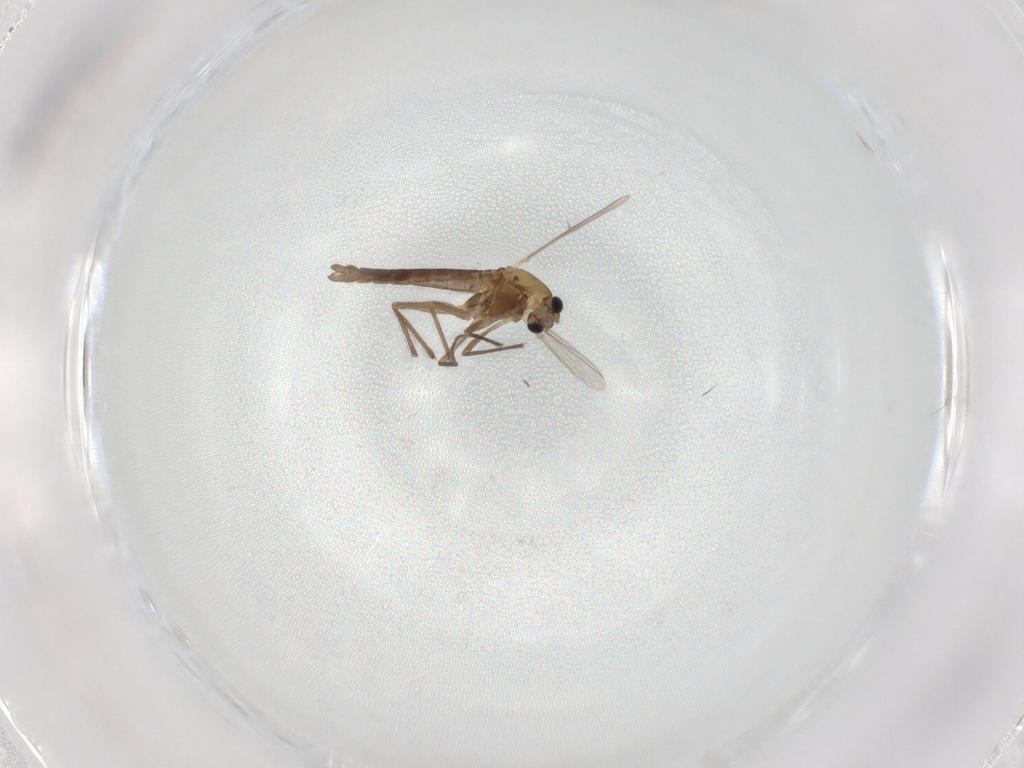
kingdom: Animalia
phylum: Arthropoda
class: Insecta
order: Diptera
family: Chironomidae
